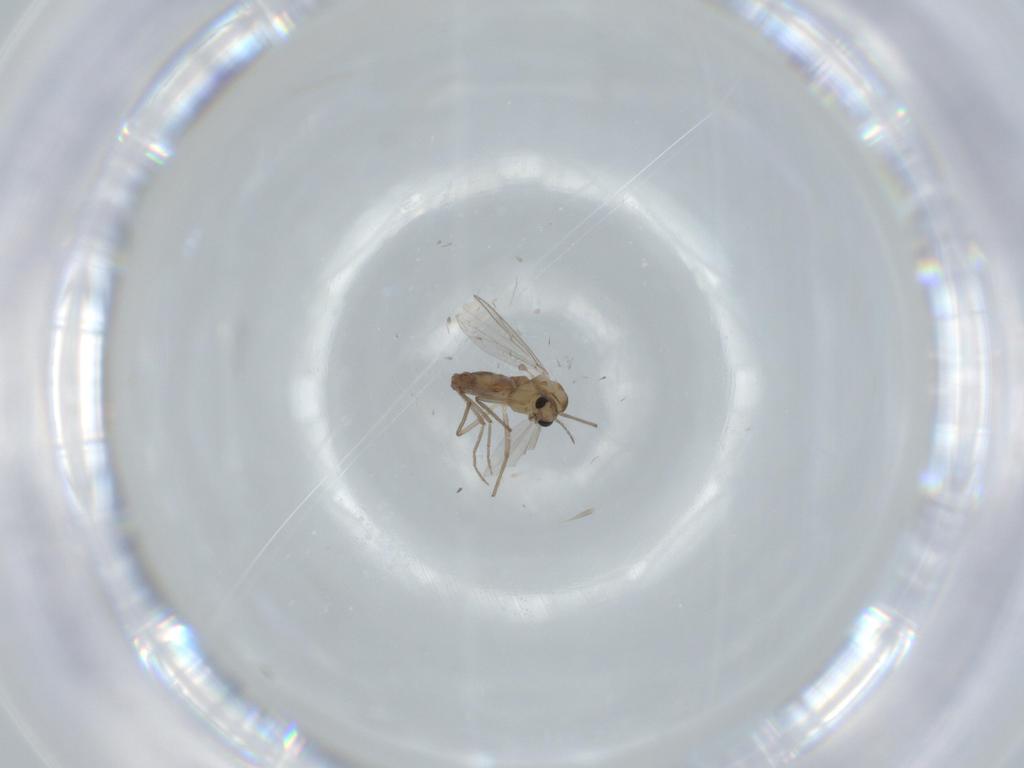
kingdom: Animalia
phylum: Arthropoda
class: Insecta
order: Diptera
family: Chironomidae
